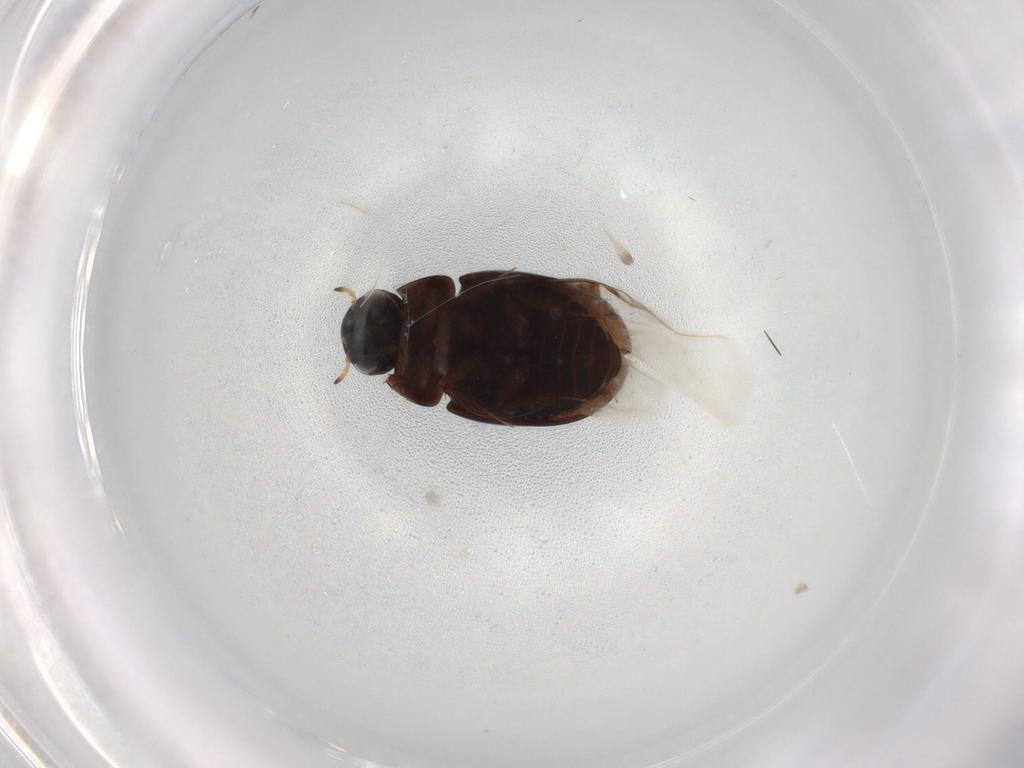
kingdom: Animalia
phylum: Arthropoda
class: Insecta
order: Coleoptera
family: Hydrophilidae
